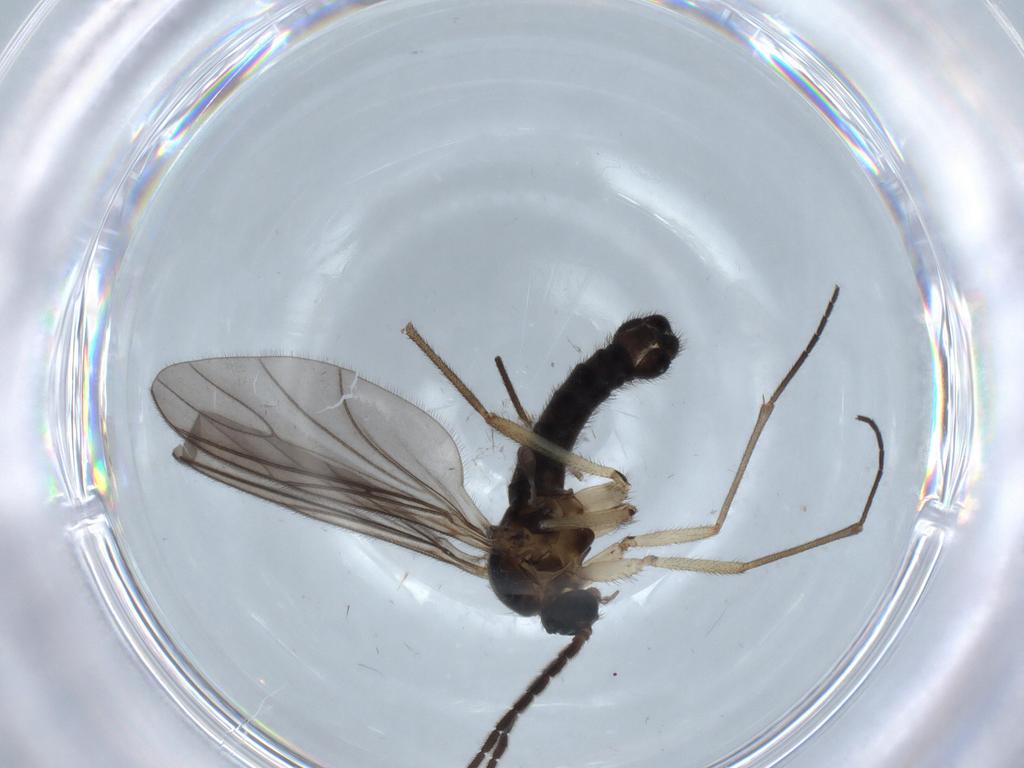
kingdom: Animalia
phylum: Arthropoda
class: Insecta
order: Diptera
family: Sciaridae
